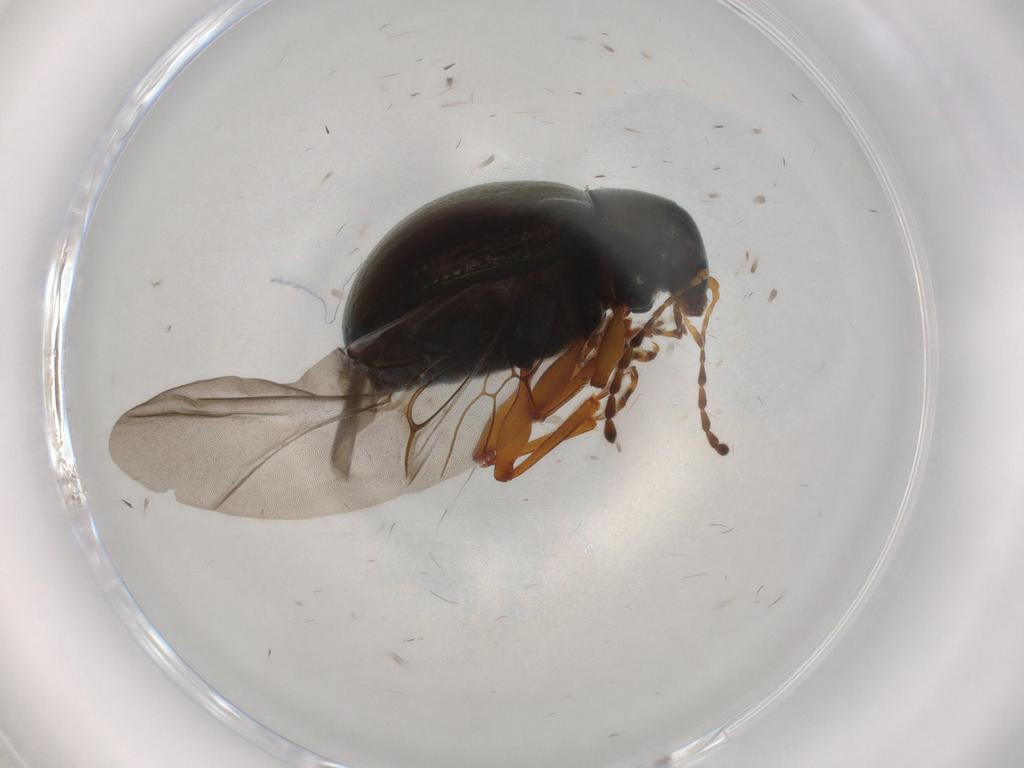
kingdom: Animalia
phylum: Arthropoda
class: Insecta
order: Coleoptera
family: Chrysomelidae
